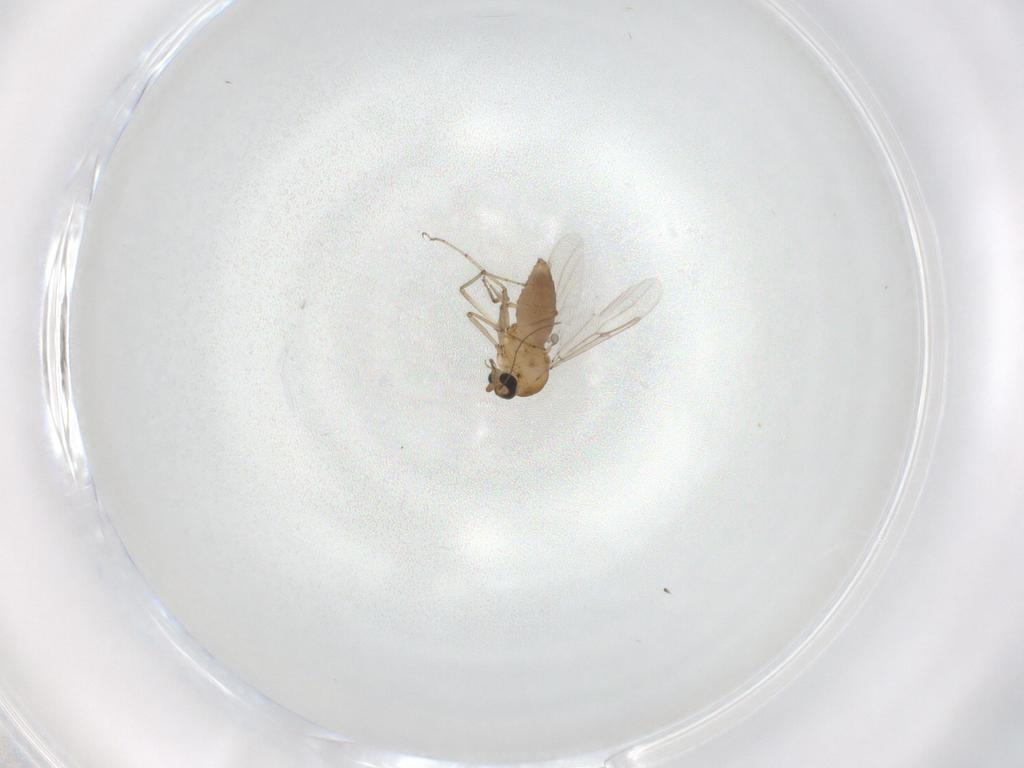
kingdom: Animalia
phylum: Arthropoda
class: Insecta
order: Diptera
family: Ceratopogonidae
